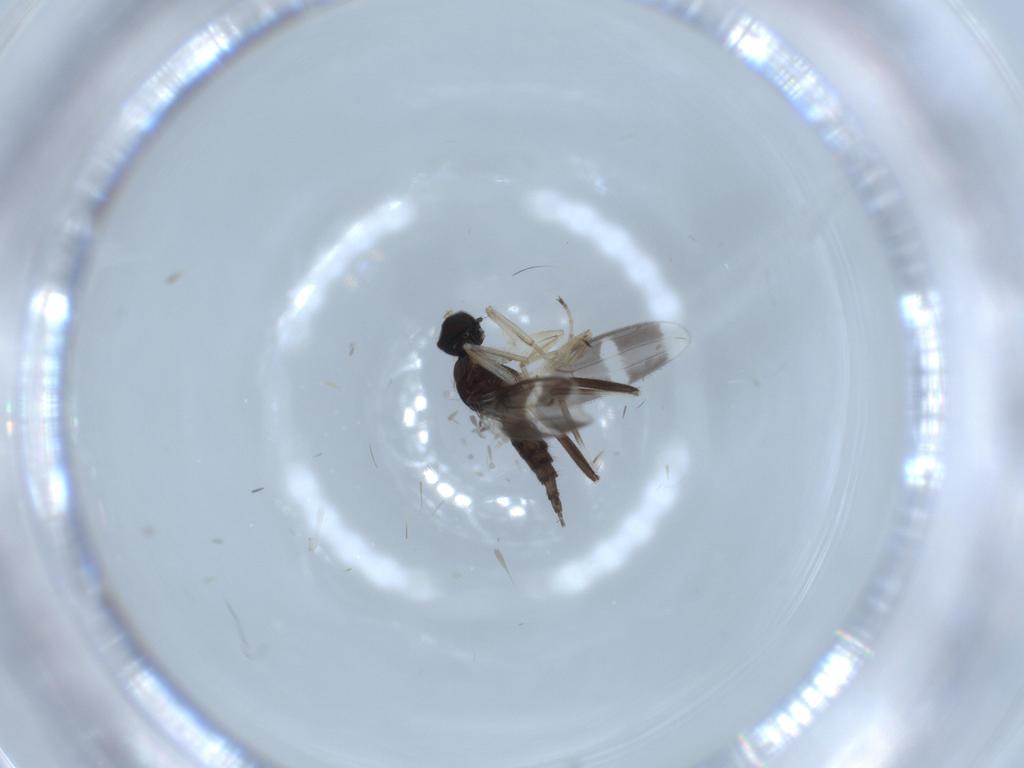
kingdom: Animalia
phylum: Arthropoda
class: Insecta
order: Diptera
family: Hybotidae
